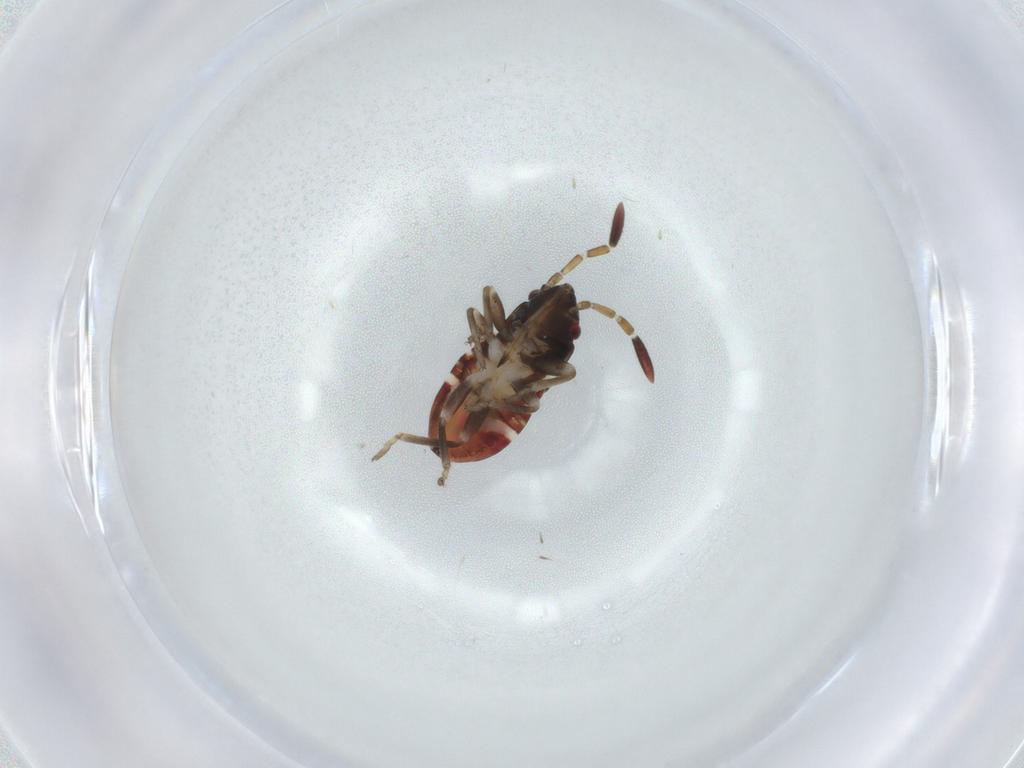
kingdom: Animalia
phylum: Arthropoda
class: Insecta
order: Hemiptera
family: Rhyparochromidae
